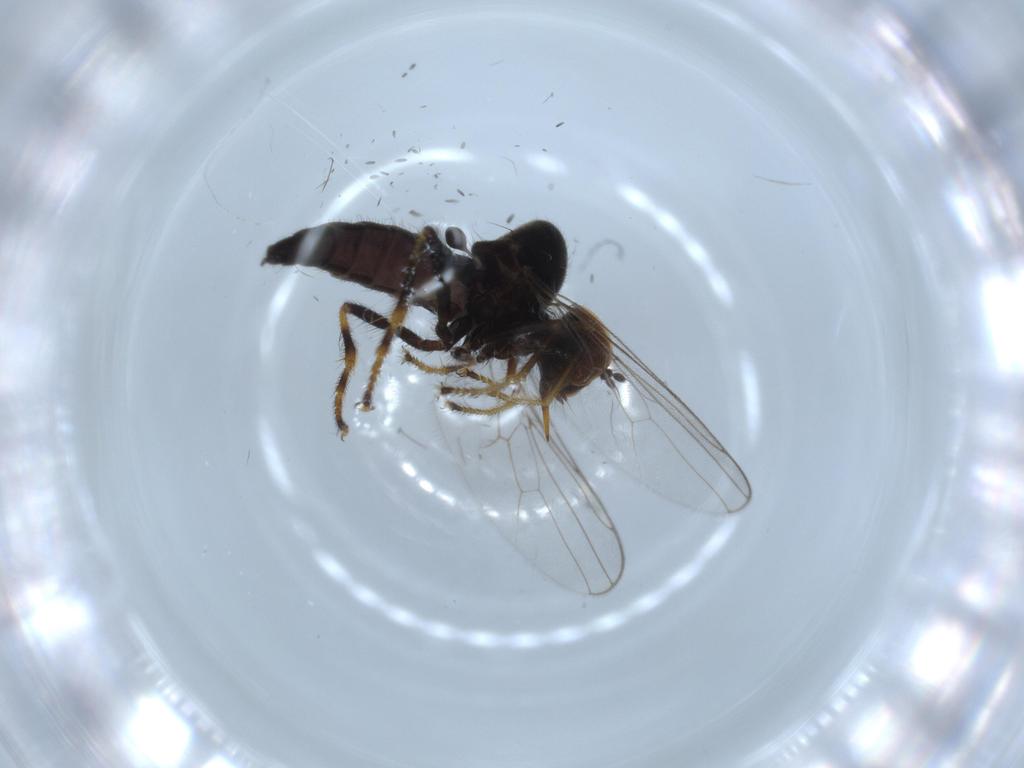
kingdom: Animalia
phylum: Arthropoda
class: Insecta
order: Diptera
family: Hybotidae
